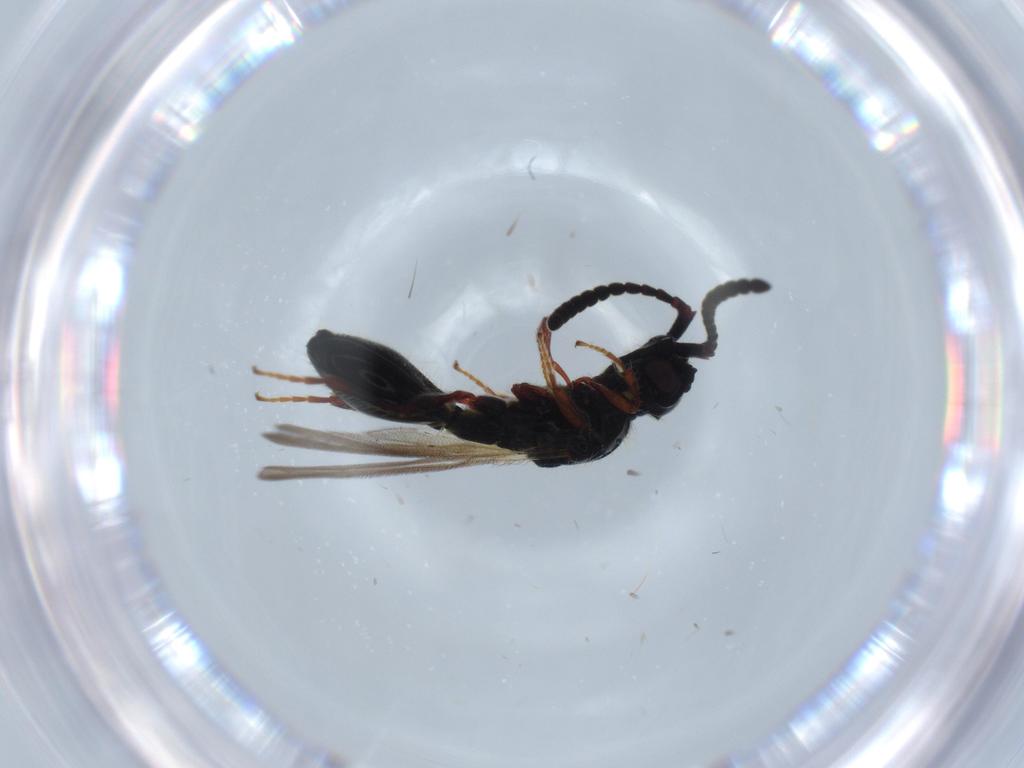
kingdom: Animalia
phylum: Arthropoda
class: Insecta
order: Hymenoptera
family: Diapriidae
